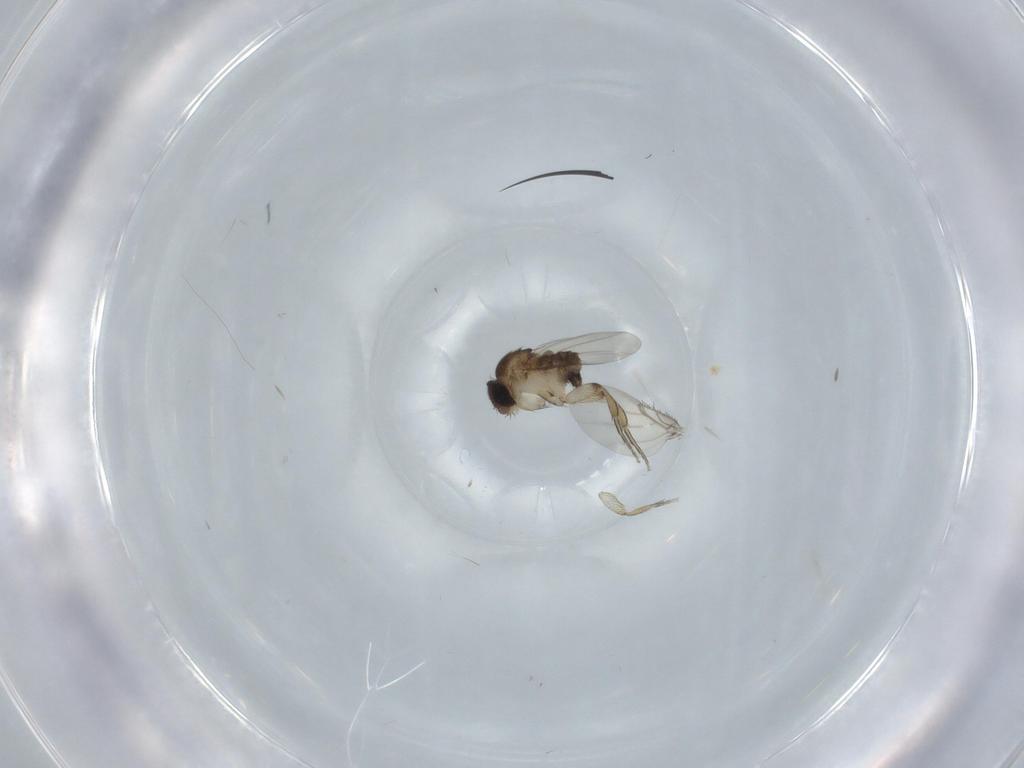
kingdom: Animalia
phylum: Arthropoda
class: Insecta
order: Diptera
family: Phoridae
